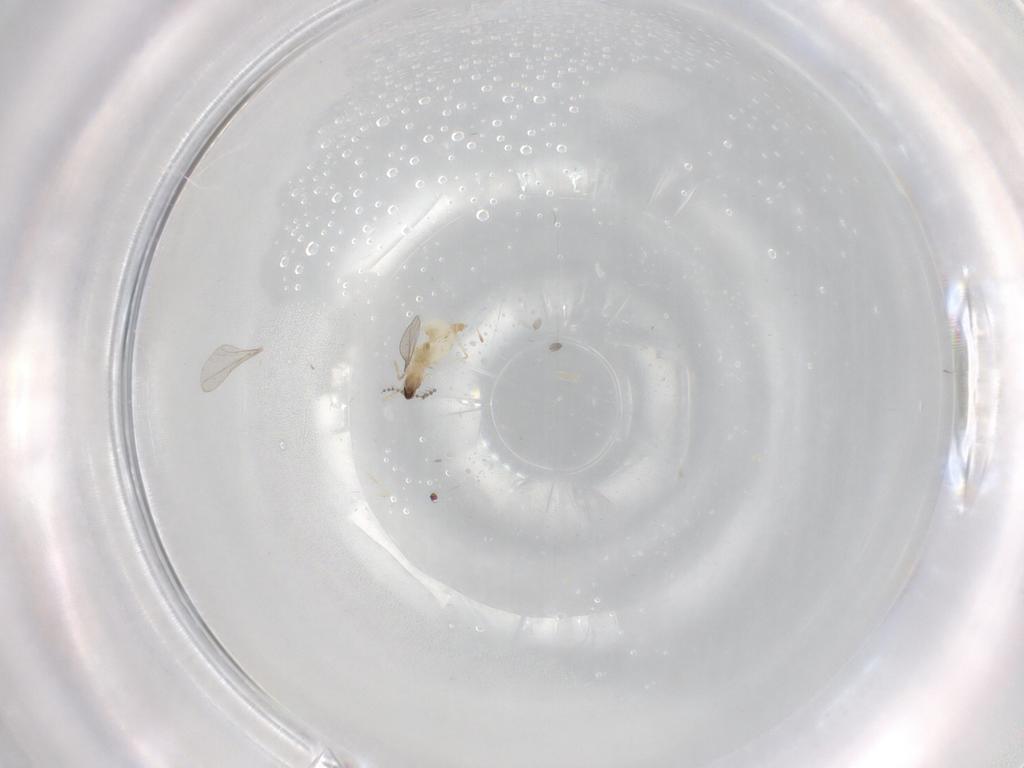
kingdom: Animalia
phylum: Arthropoda
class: Insecta
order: Diptera
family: Cecidomyiidae
